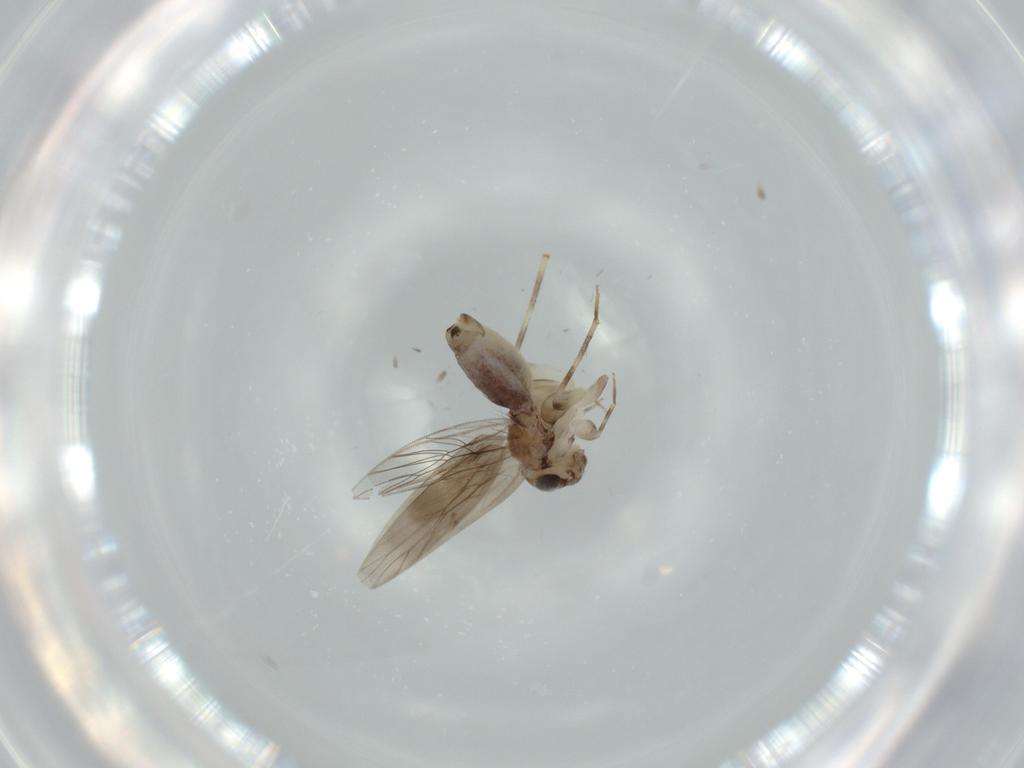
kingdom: Animalia
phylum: Arthropoda
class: Insecta
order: Psocodea
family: Lepidopsocidae
